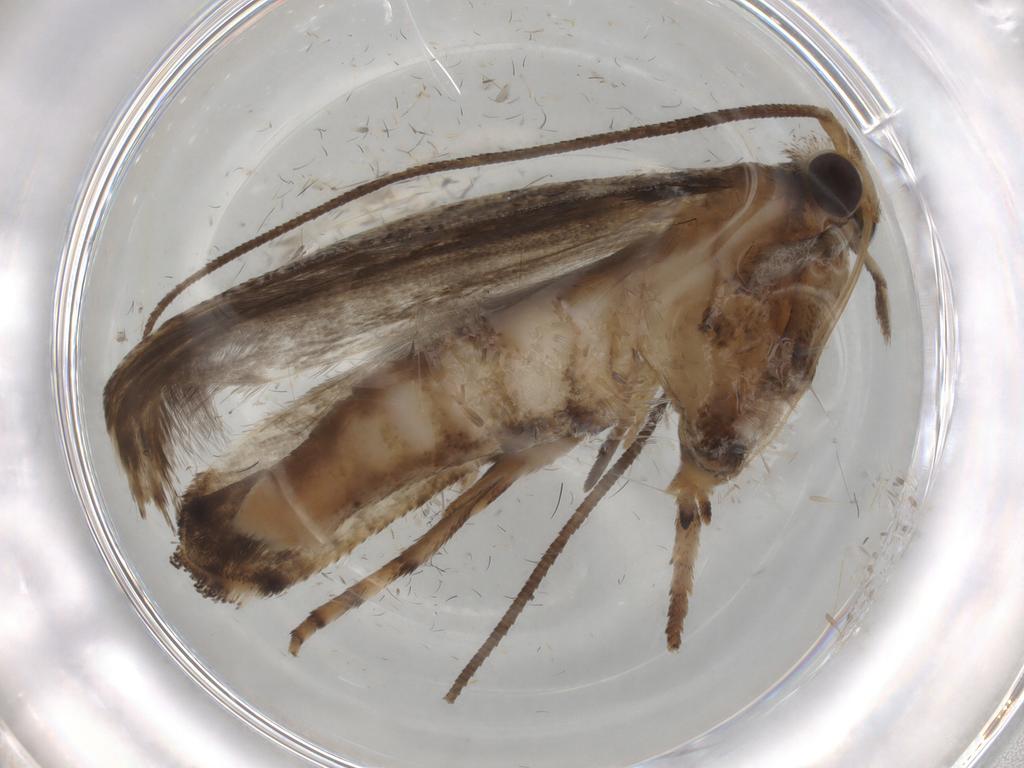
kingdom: Animalia
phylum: Arthropoda
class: Insecta
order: Lepidoptera
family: Yponomeutidae
